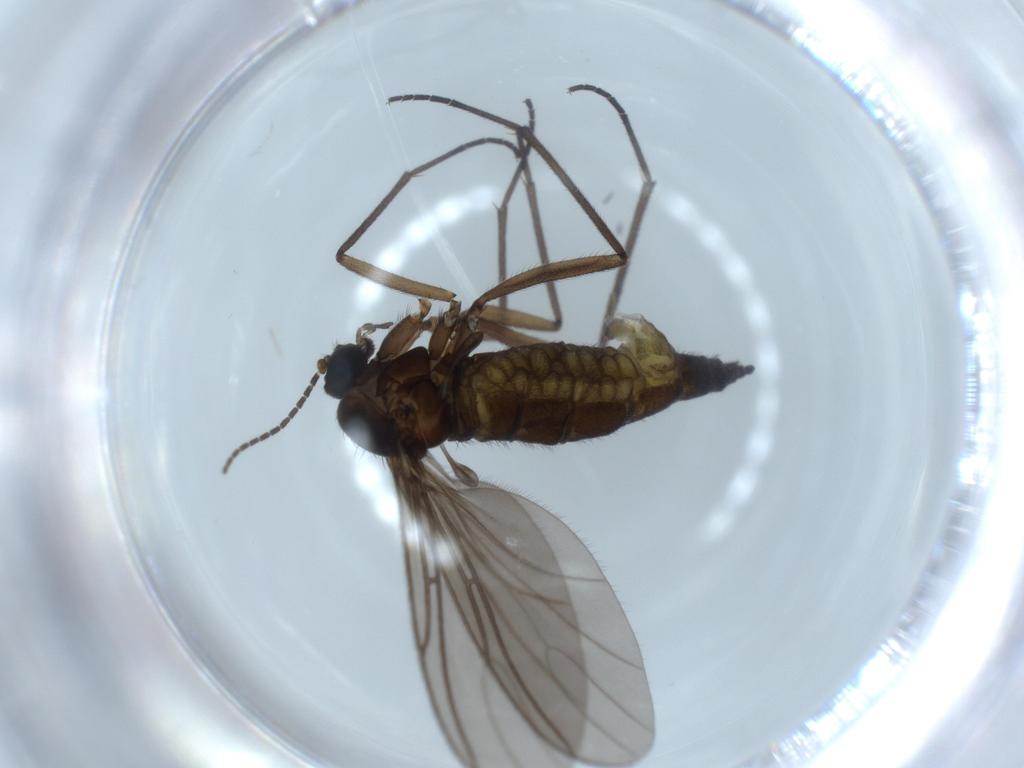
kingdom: Animalia
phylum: Arthropoda
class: Insecta
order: Diptera
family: Sciaridae
